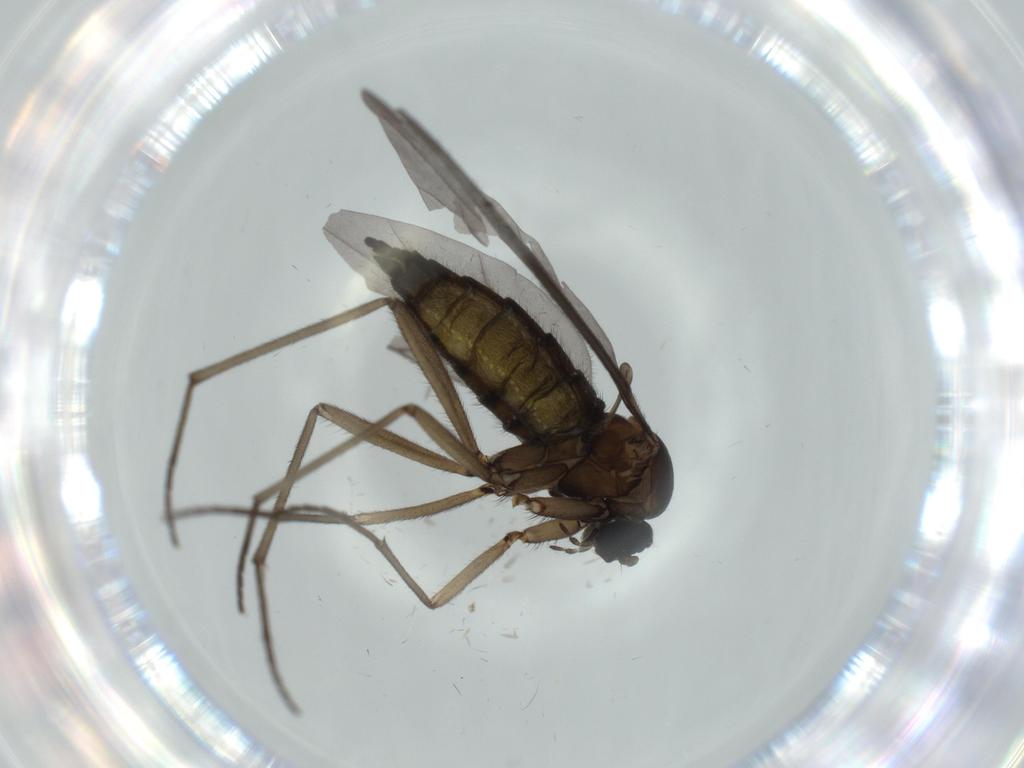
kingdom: Animalia
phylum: Arthropoda
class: Insecta
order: Diptera
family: Sciaridae
